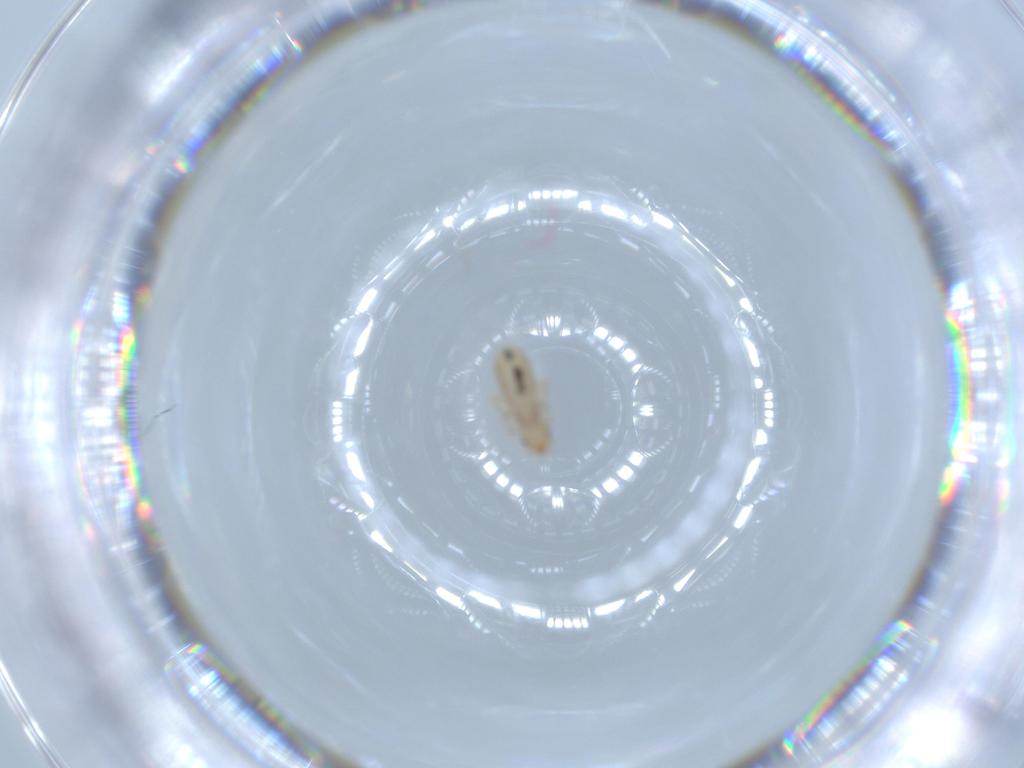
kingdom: Animalia
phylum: Arthropoda
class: Insecta
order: Psocodea
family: Liposcelididae
